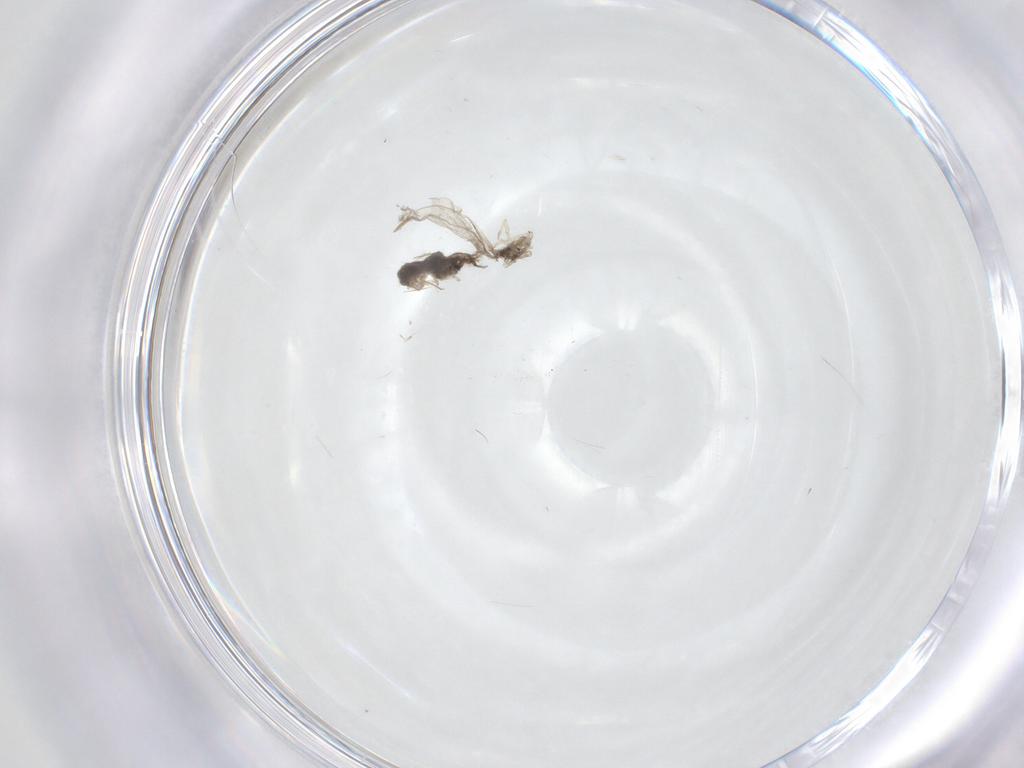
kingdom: Animalia
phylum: Arthropoda
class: Insecta
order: Diptera
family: Cecidomyiidae
